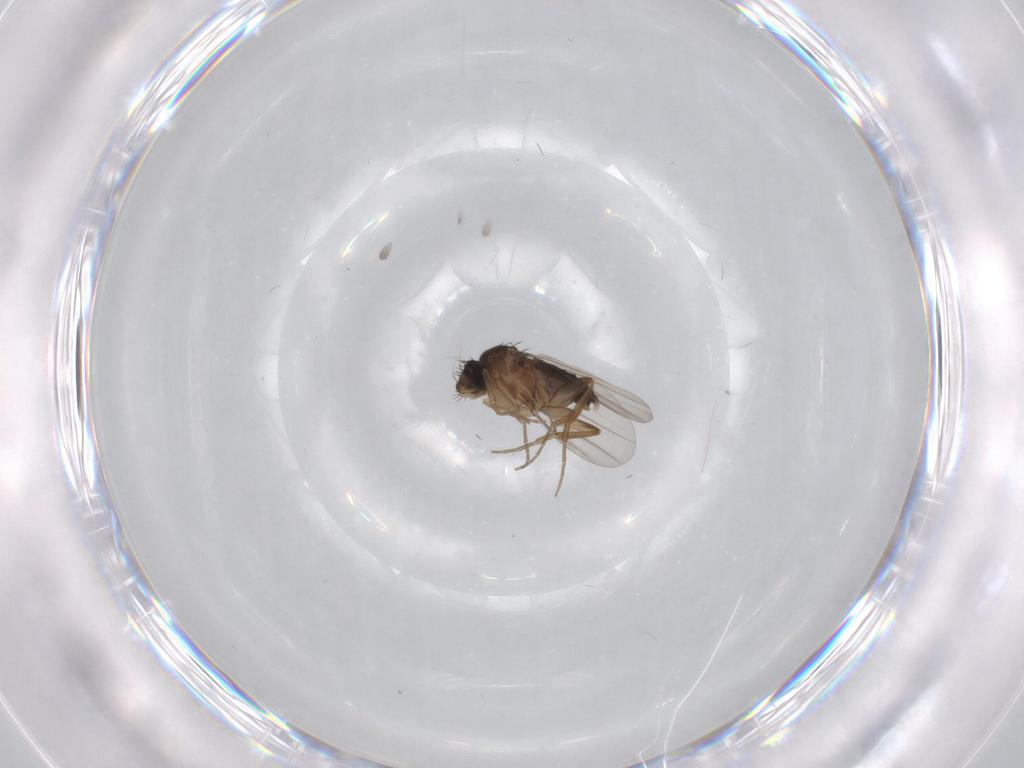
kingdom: Animalia
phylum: Arthropoda
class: Insecta
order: Diptera
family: Phoridae
